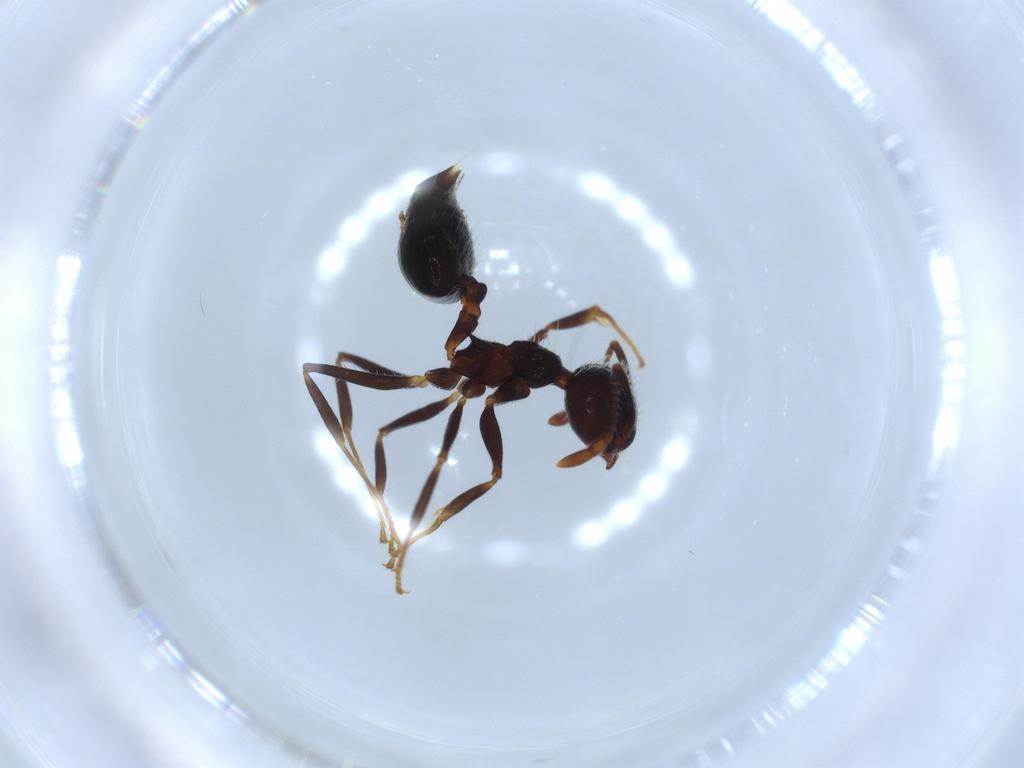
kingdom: Animalia
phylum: Arthropoda
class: Insecta
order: Hymenoptera
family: Formicidae
